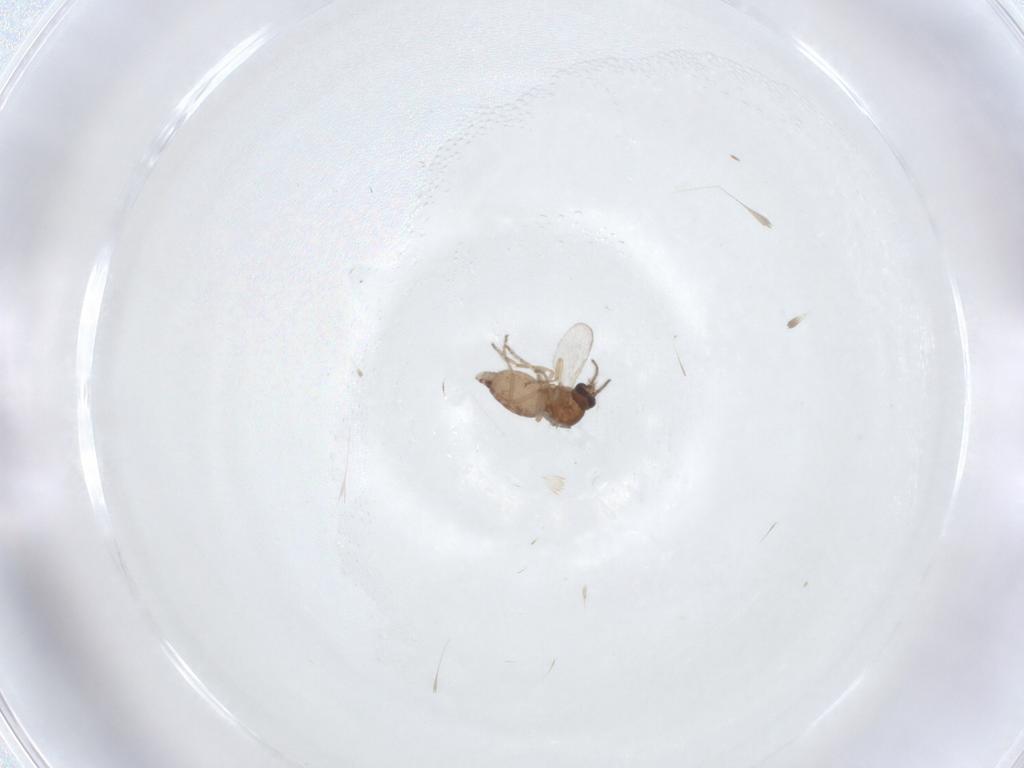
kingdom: Animalia
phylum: Arthropoda
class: Insecta
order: Diptera
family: Ceratopogonidae
